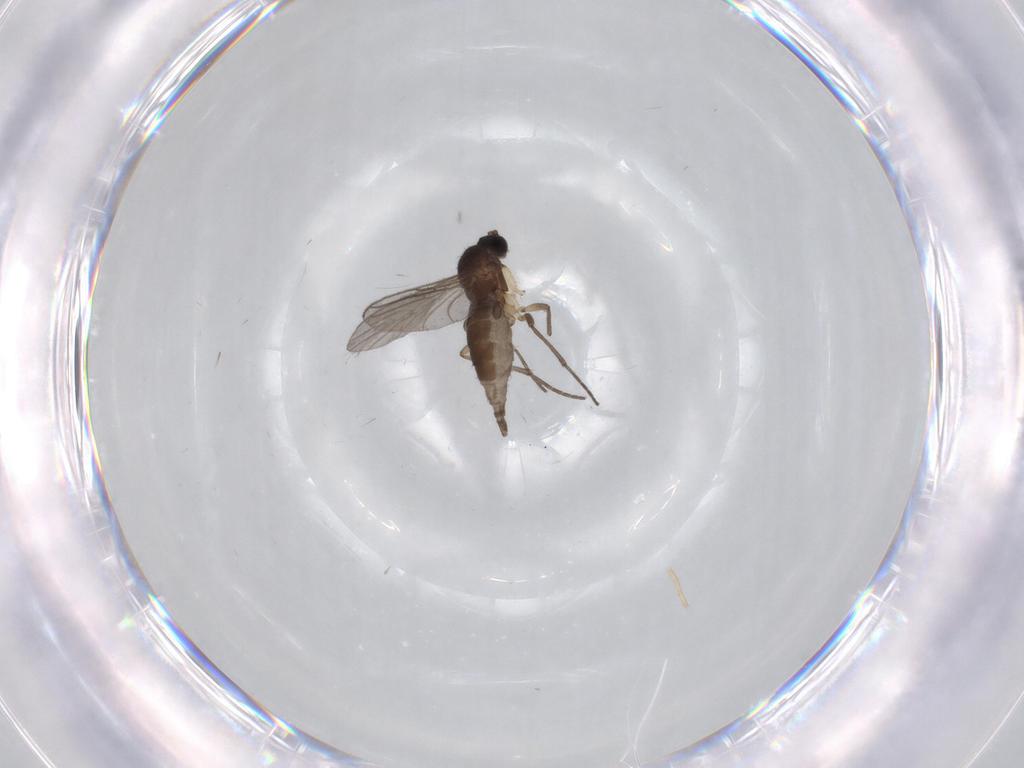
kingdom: Animalia
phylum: Arthropoda
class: Insecta
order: Diptera
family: Sciaridae
